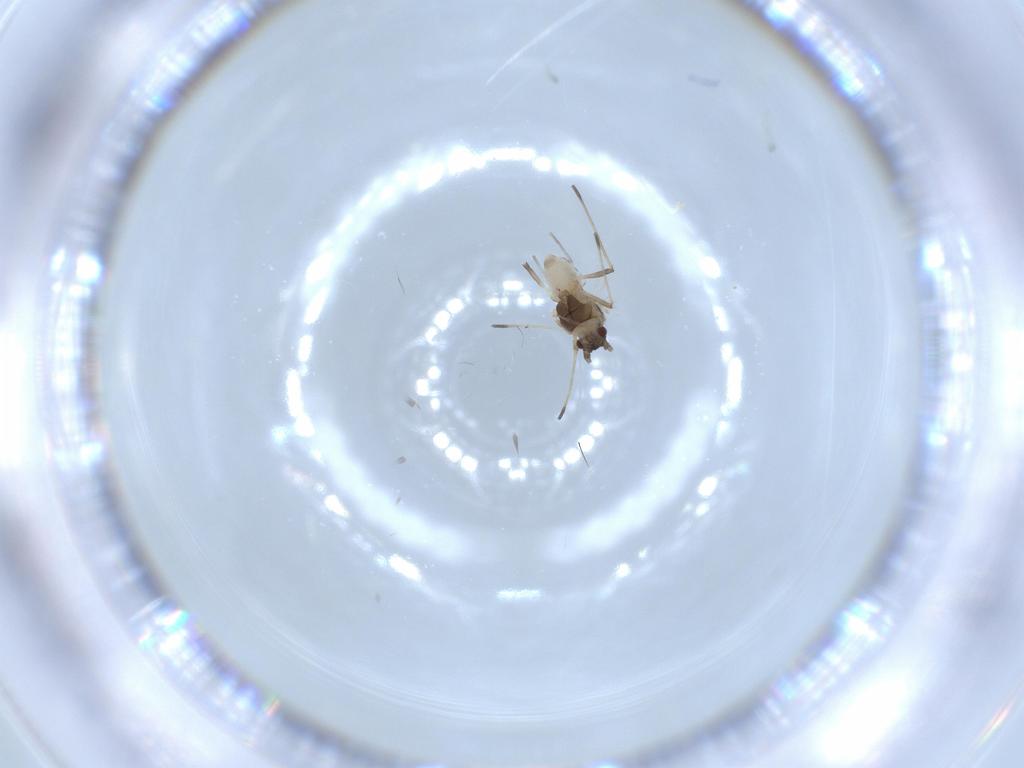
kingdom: Animalia
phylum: Arthropoda
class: Insecta
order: Hemiptera
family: Aphididae
